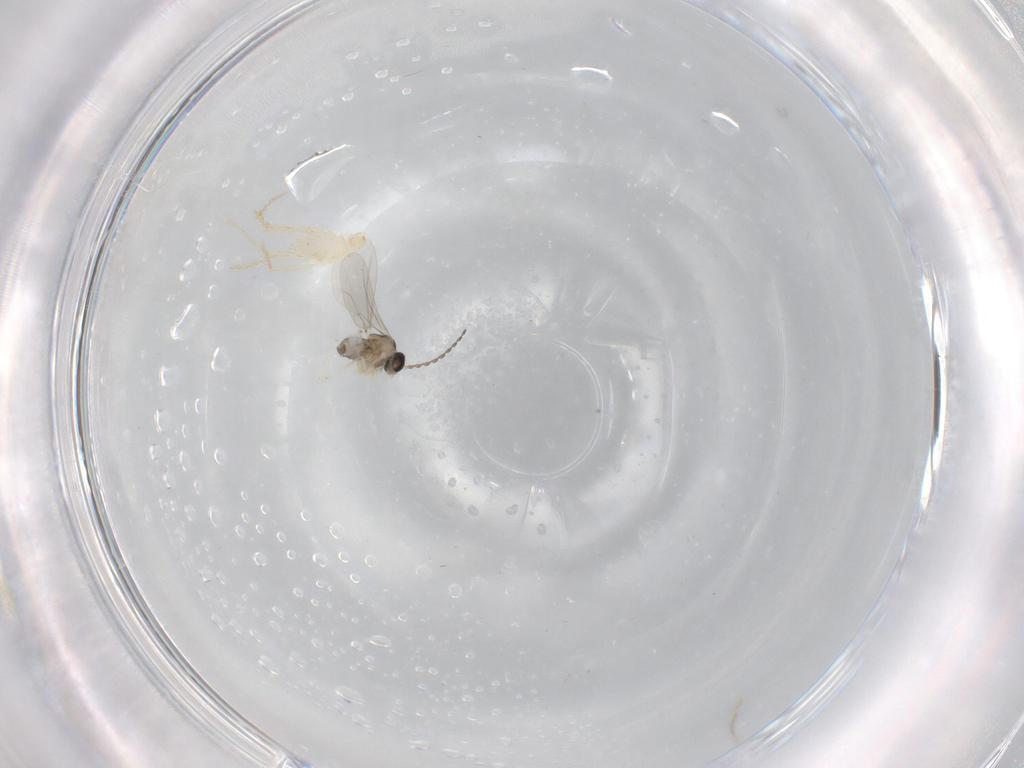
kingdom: Animalia
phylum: Arthropoda
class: Insecta
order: Diptera
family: Cecidomyiidae
